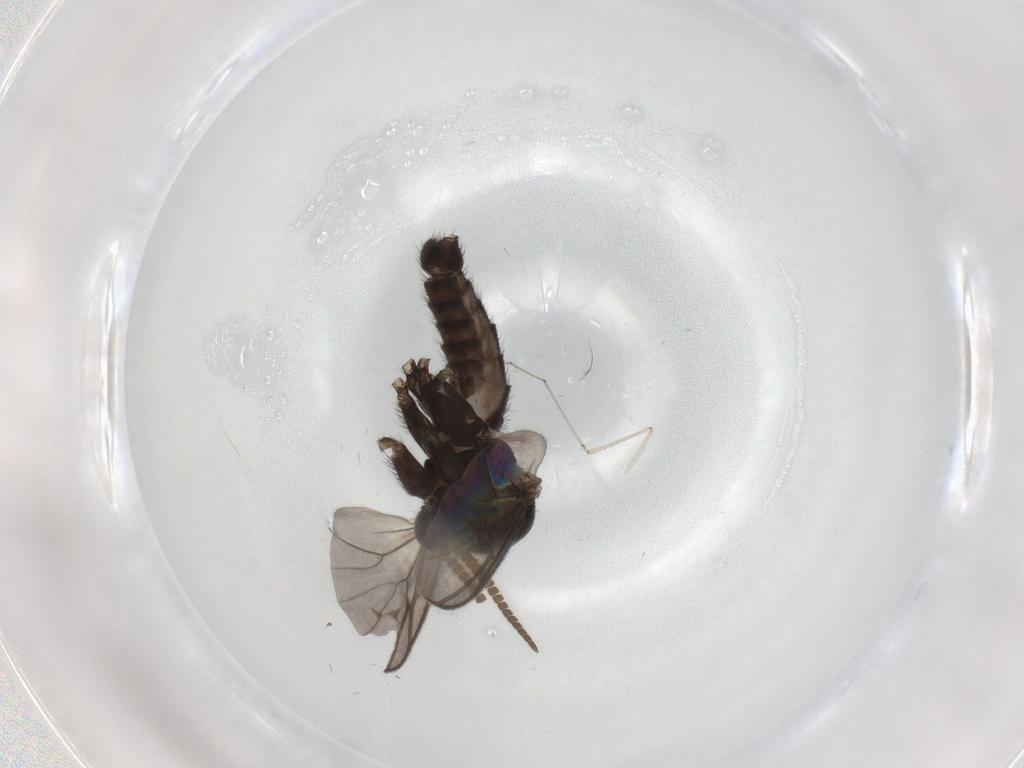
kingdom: Animalia
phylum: Arthropoda
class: Insecta
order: Diptera
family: Mycetophilidae
